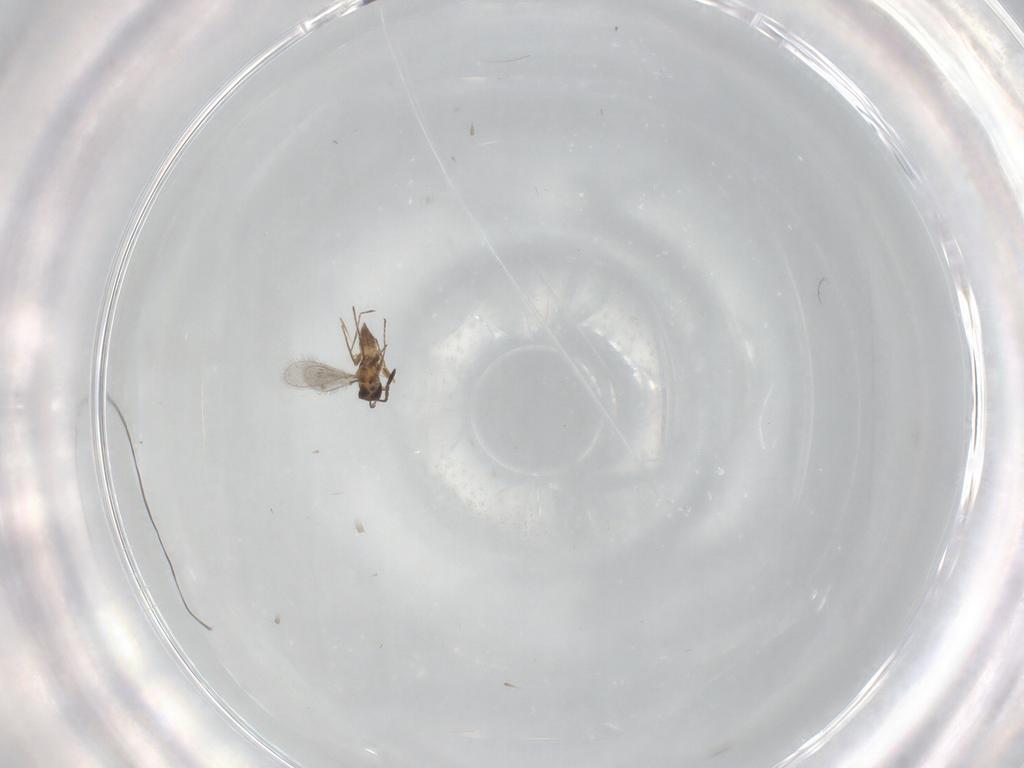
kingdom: Animalia
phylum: Arthropoda
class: Insecta
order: Hymenoptera
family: Mymaridae
